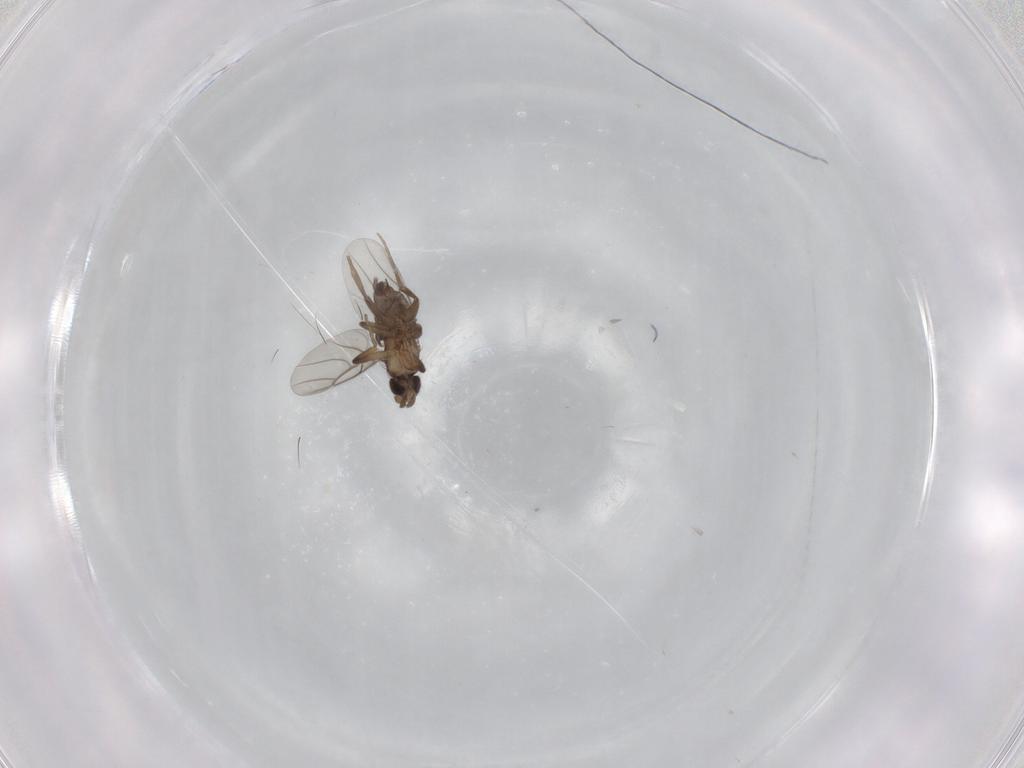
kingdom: Animalia
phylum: Arthropoda
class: Insecta
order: Diptera
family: Phoridae
